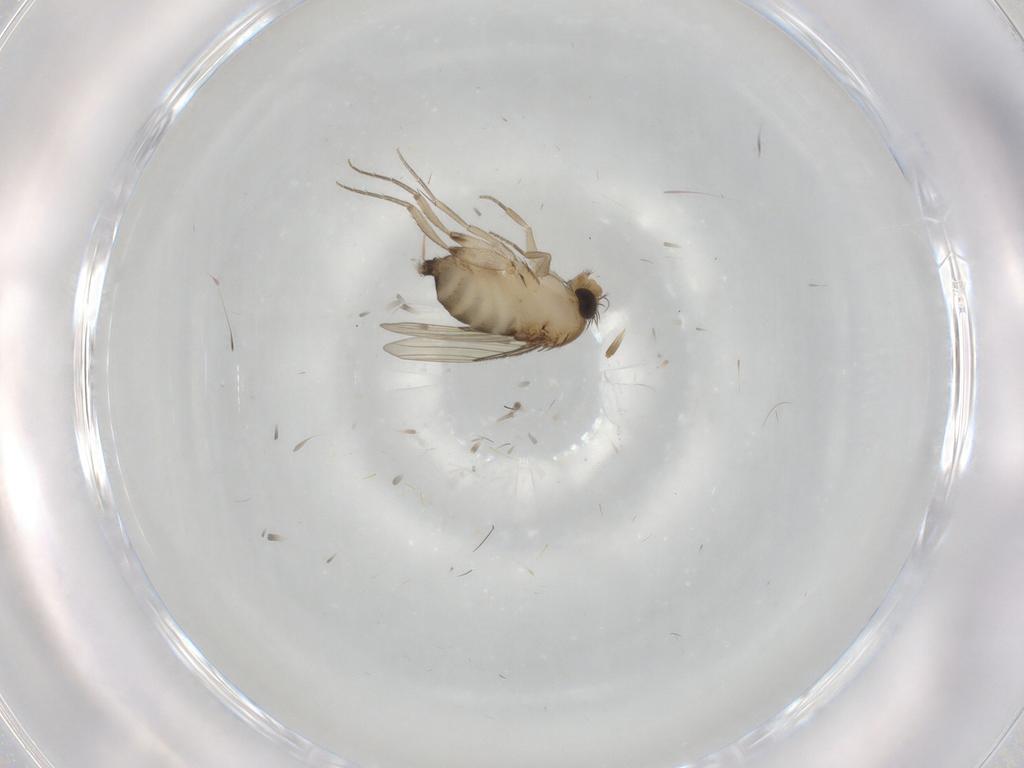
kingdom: Animalia
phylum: Arthropoda
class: Insecta
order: Diptera
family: Phoridae
